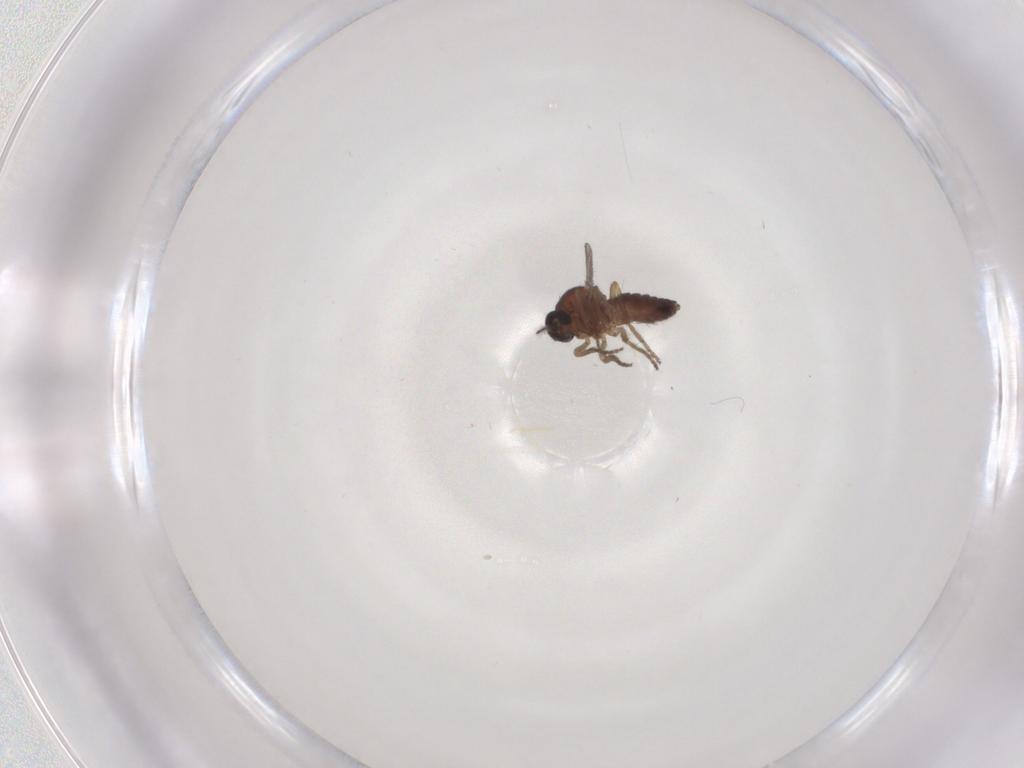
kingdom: Animalia
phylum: Arthropoda
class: Insecta
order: Diptera
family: Ceratopogonidae
